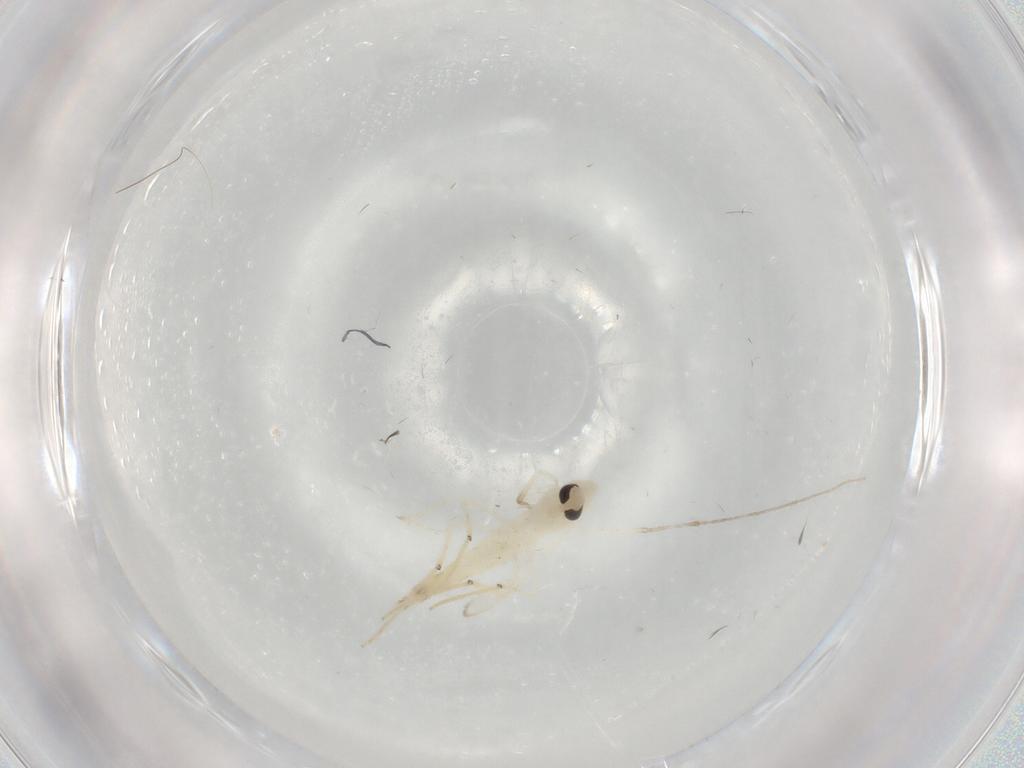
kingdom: Animalia
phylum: Arthropoda
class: Insecta
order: Diptera
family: Chironomidae
